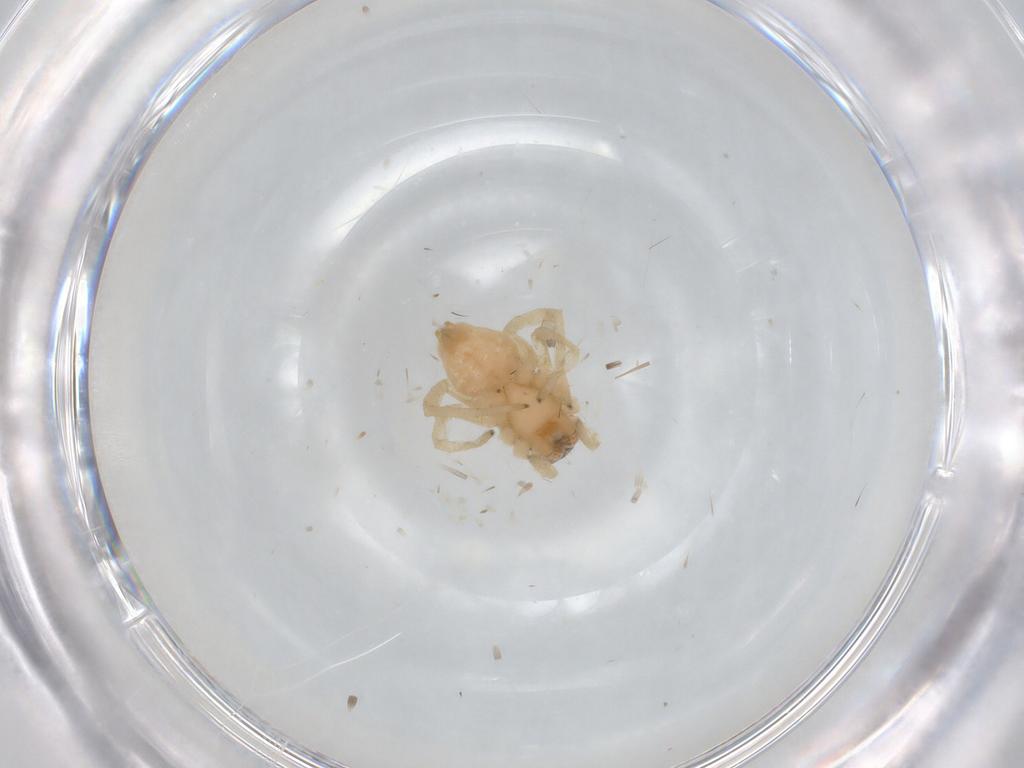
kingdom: Animalia
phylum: Arthropoda
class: Arachnida
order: Araneae
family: Cheiracanthiidae
